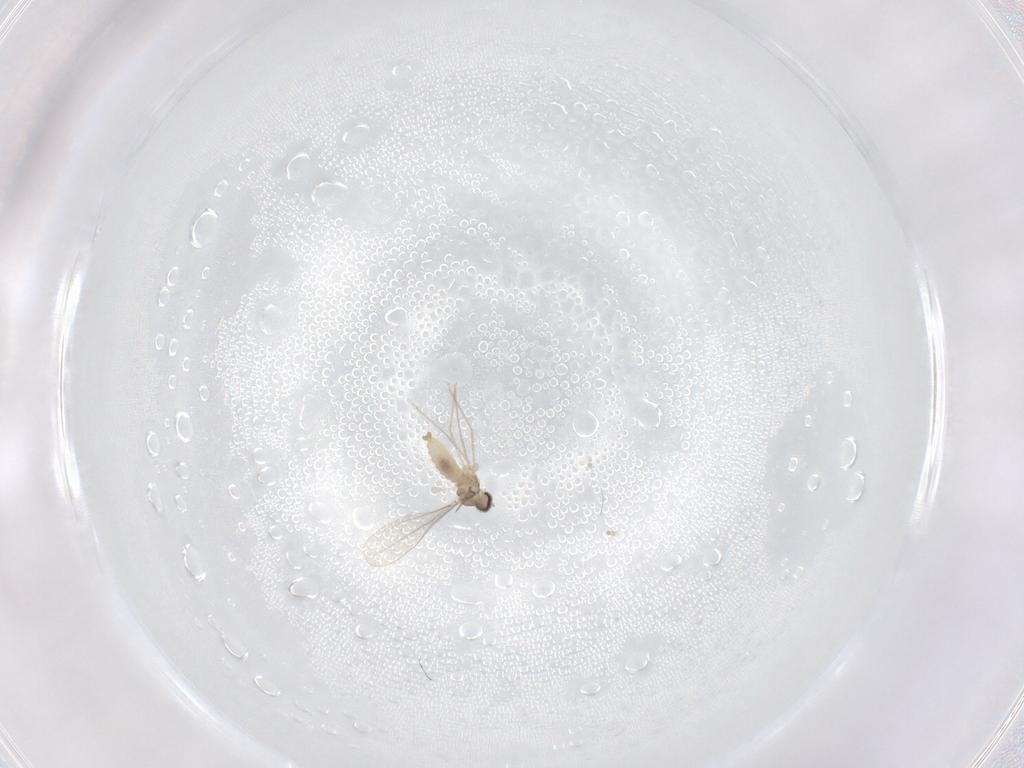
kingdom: Animalia
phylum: Arthropoda
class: Insecta
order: Diptera
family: Cecidomyiidae
